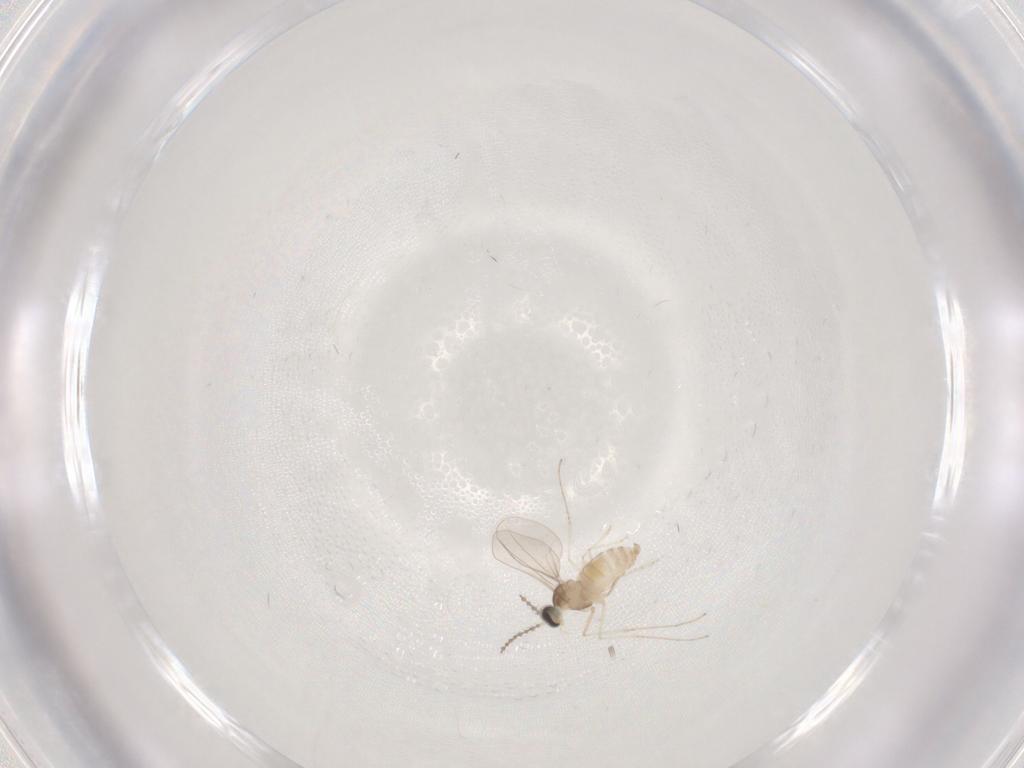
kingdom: Animalia
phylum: Arthropoda
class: Insecta
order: Diptera
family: Cecidomyiidae
